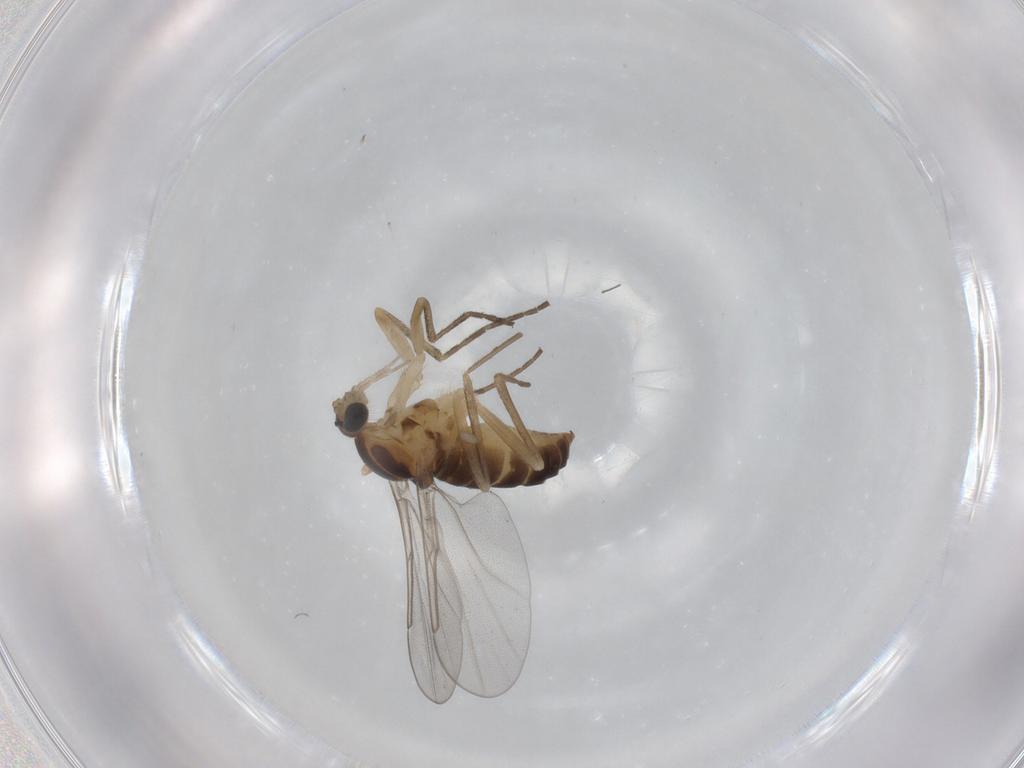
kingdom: Animalia
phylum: Arthropoda
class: Insecta
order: Diptera
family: Cecidomyiidae
